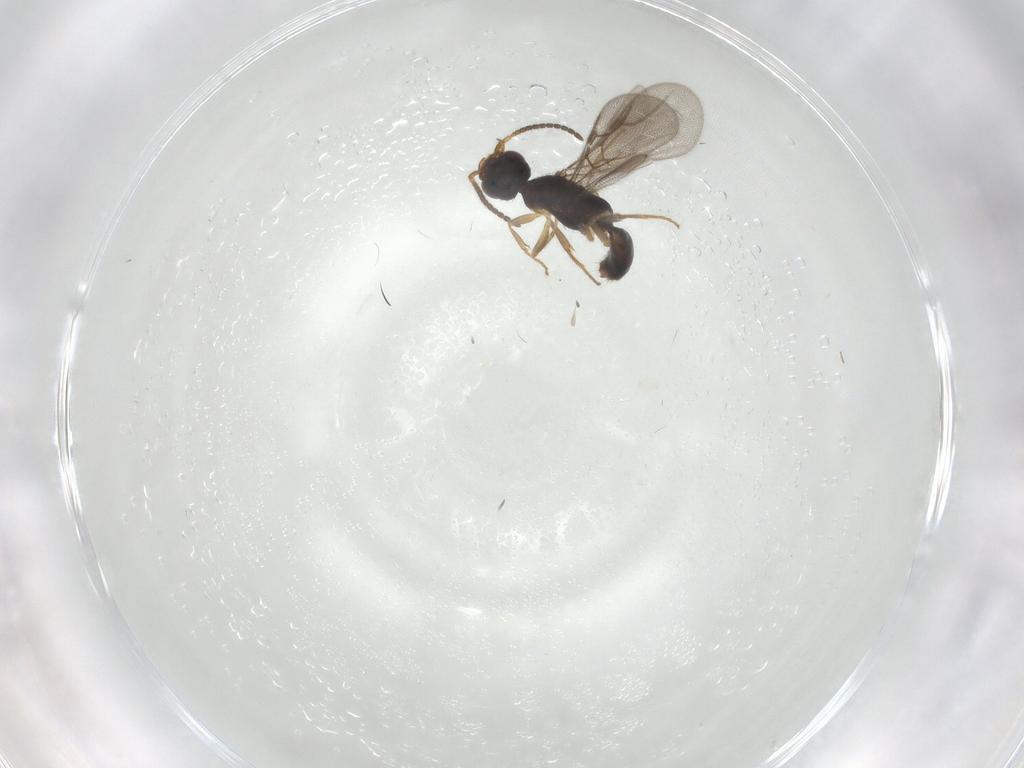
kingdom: Animalia
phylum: Arthropoda
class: Insecta
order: Hymenoptera
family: Bethylidae
